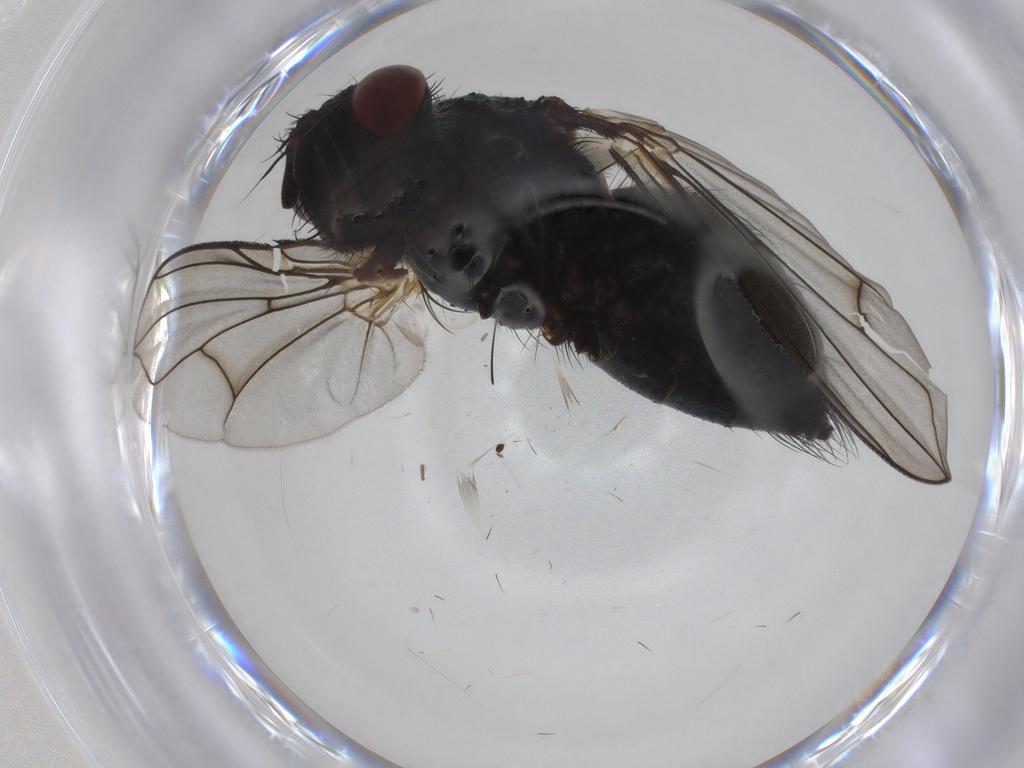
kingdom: Animalia
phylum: Arthropoda
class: Insecta
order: Diptera
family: Tachinidae
